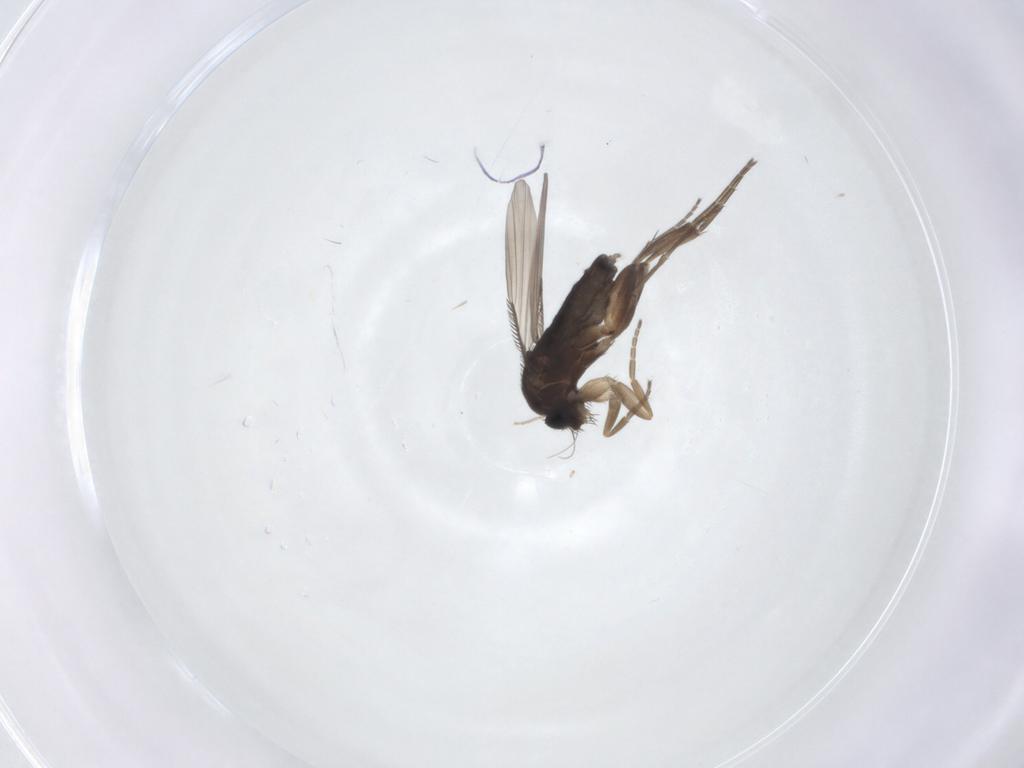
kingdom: Animalia
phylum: Arthropoda
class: Insecta
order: Diptera
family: Phoridae
